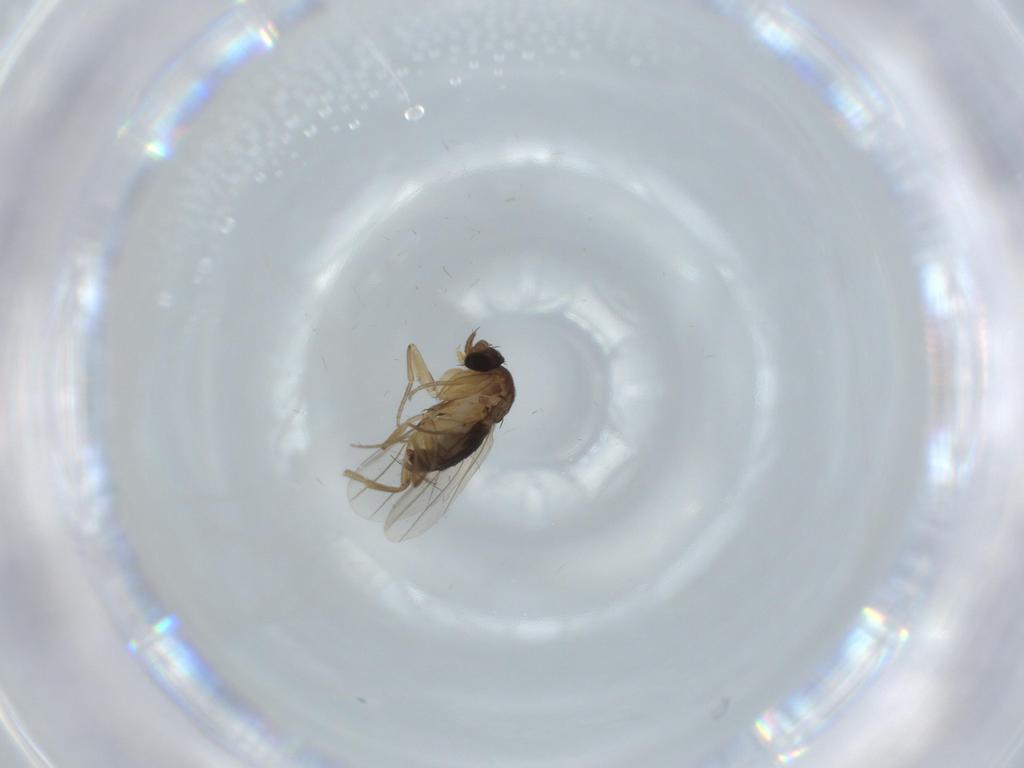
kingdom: Animalia
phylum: Arthropoda
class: Insecta
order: Diptera
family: Phoridae
